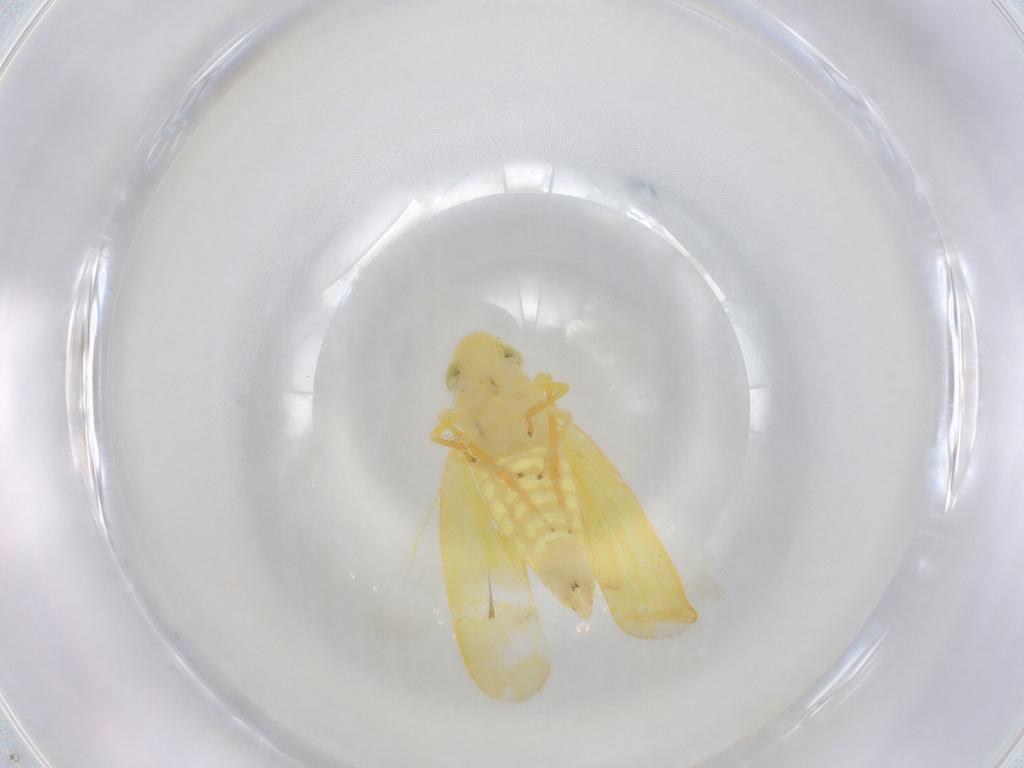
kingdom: Animalia
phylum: Arthropoda
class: Insecta
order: Hemiptera
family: Cicadellidae
